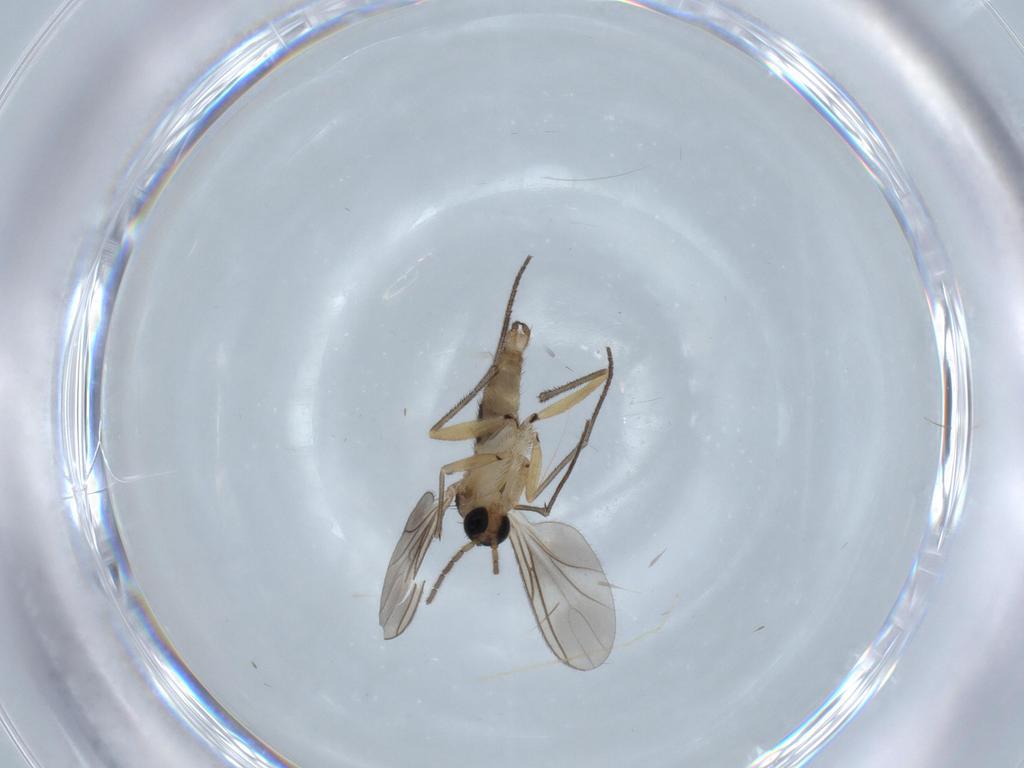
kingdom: Animalia
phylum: Arthropoda
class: Insecta
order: Diptera
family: Sciaridae
